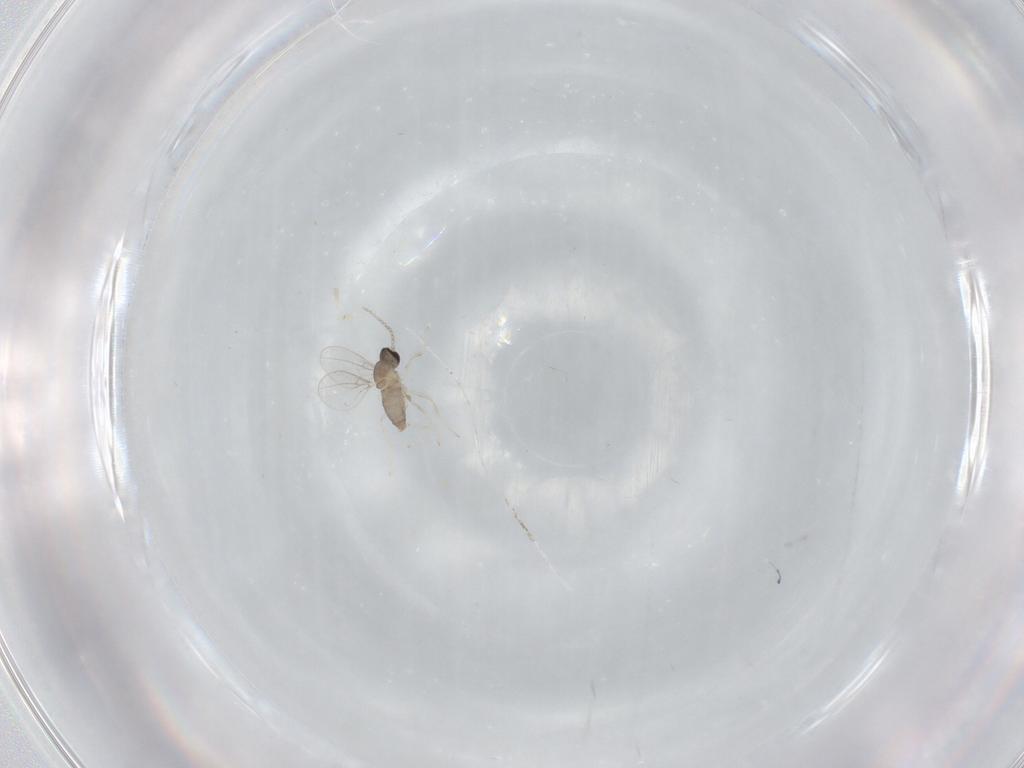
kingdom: Animalia
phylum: Arthropoda
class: Insecta
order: Diptera
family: Cecidomyiidae
